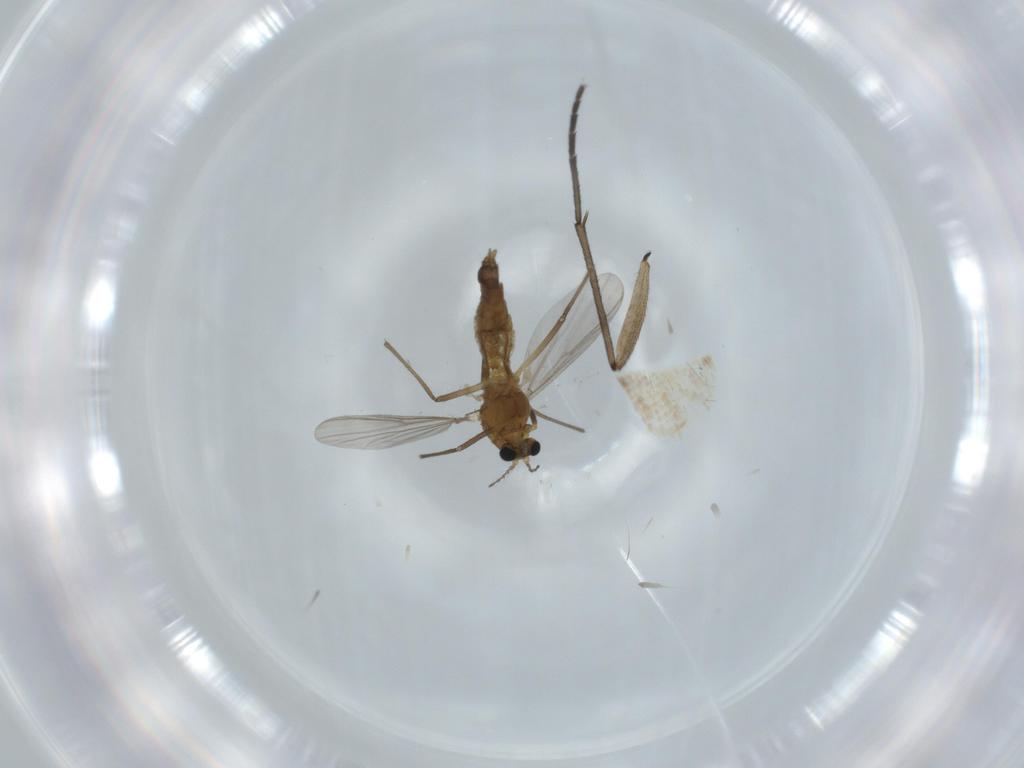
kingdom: Animalia
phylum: Arthropoda
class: Insecta
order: Diptera
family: Chironomidae
